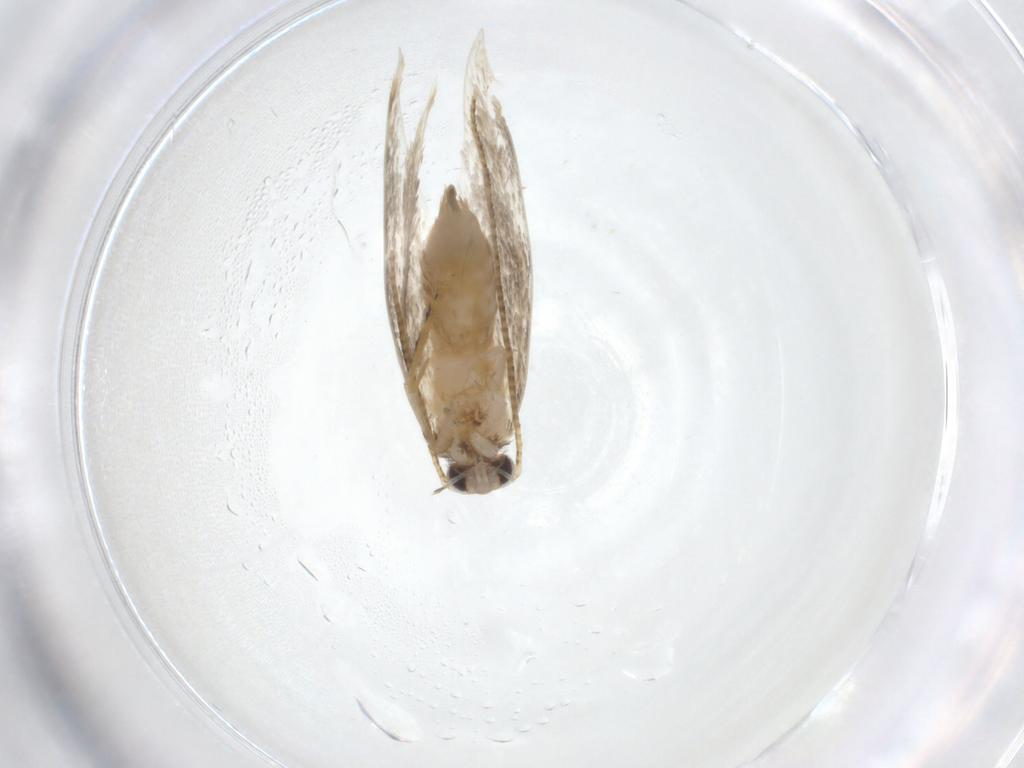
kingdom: Animalia
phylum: Arthropoda
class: Insecta
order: Lepidoptera
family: Tineidae
